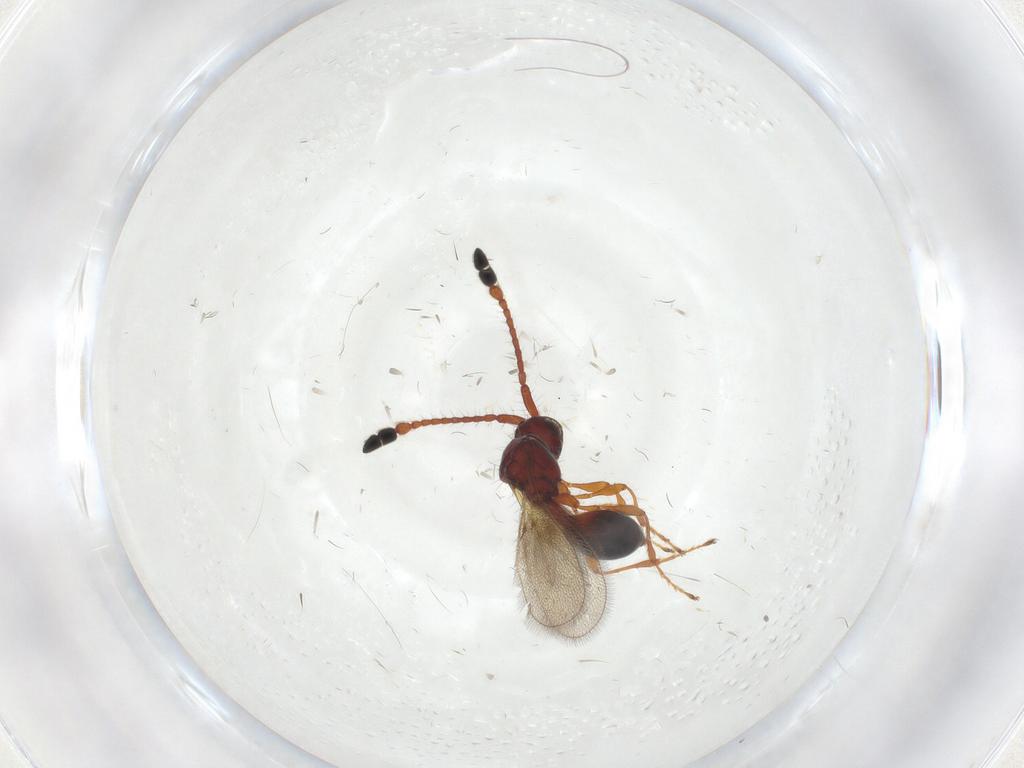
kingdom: Animalia
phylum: Arthropoda
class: Insecta
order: Hymenoptera
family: Diapriidae
